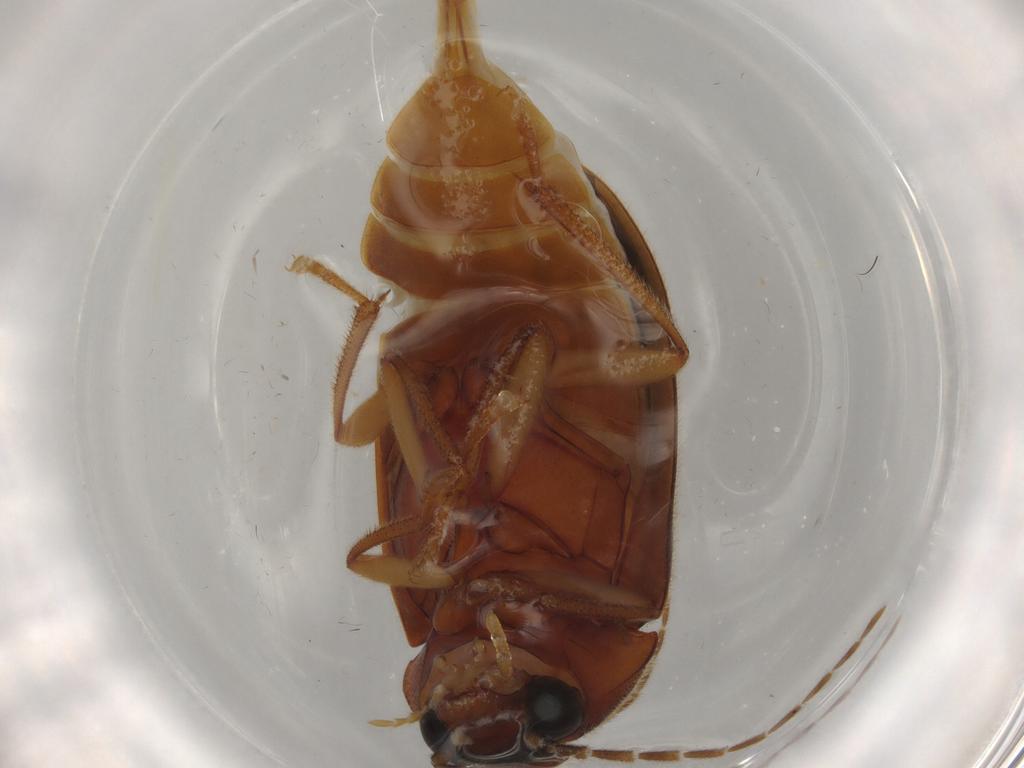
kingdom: Animalia
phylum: Arthropoda
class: Insecta
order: Coleoptera
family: Ptilodactylidae
